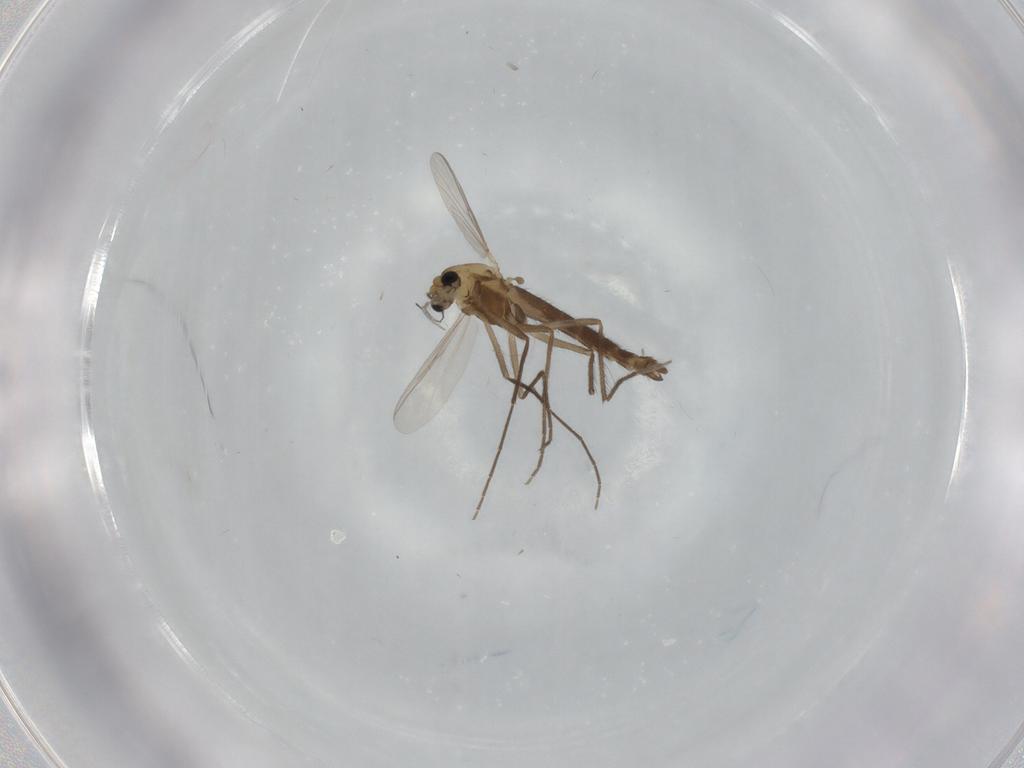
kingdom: Animalia
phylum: Arthropoda
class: Insecta
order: Diptera
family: Chironomidae
